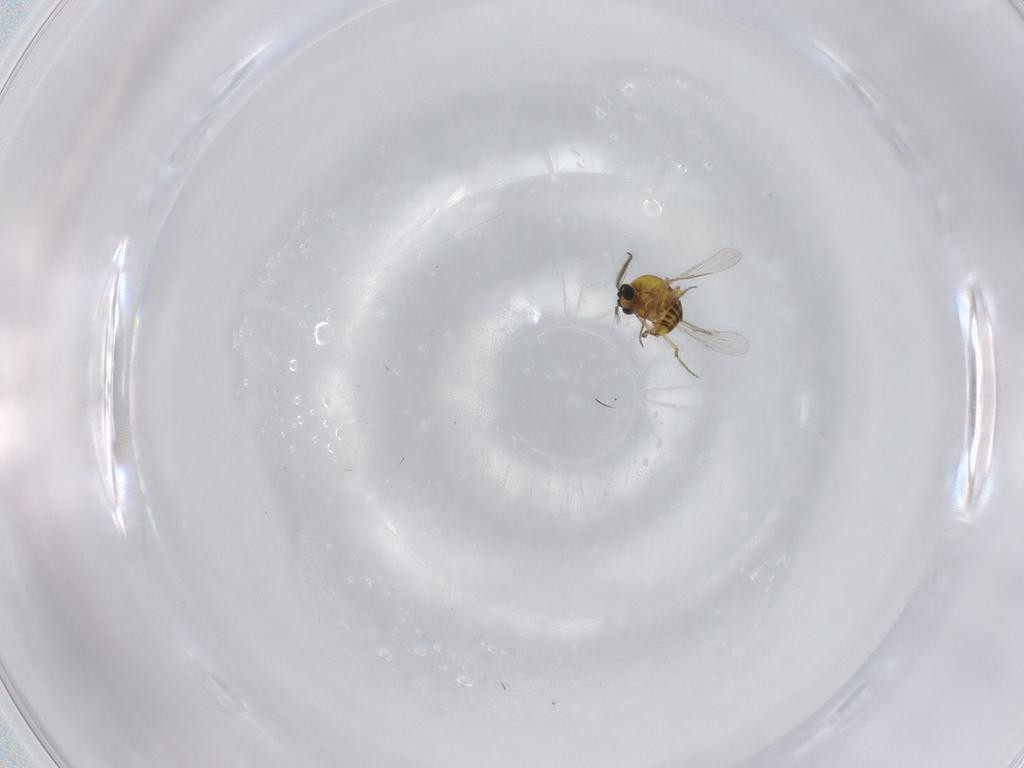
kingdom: Animalia
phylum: Arthropoda
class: Insecta
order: Diptera
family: Ceratopogonidae
